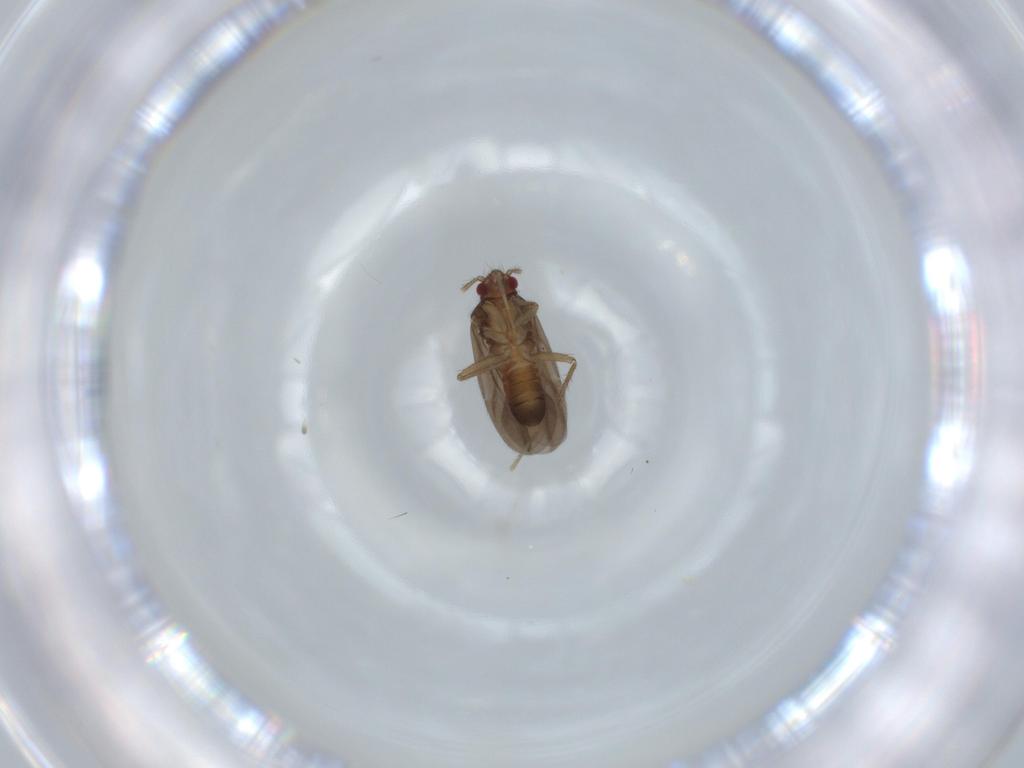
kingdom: Animalia
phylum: Arthropoda
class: Insecta
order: Hemiptera
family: Ceratocombidae
